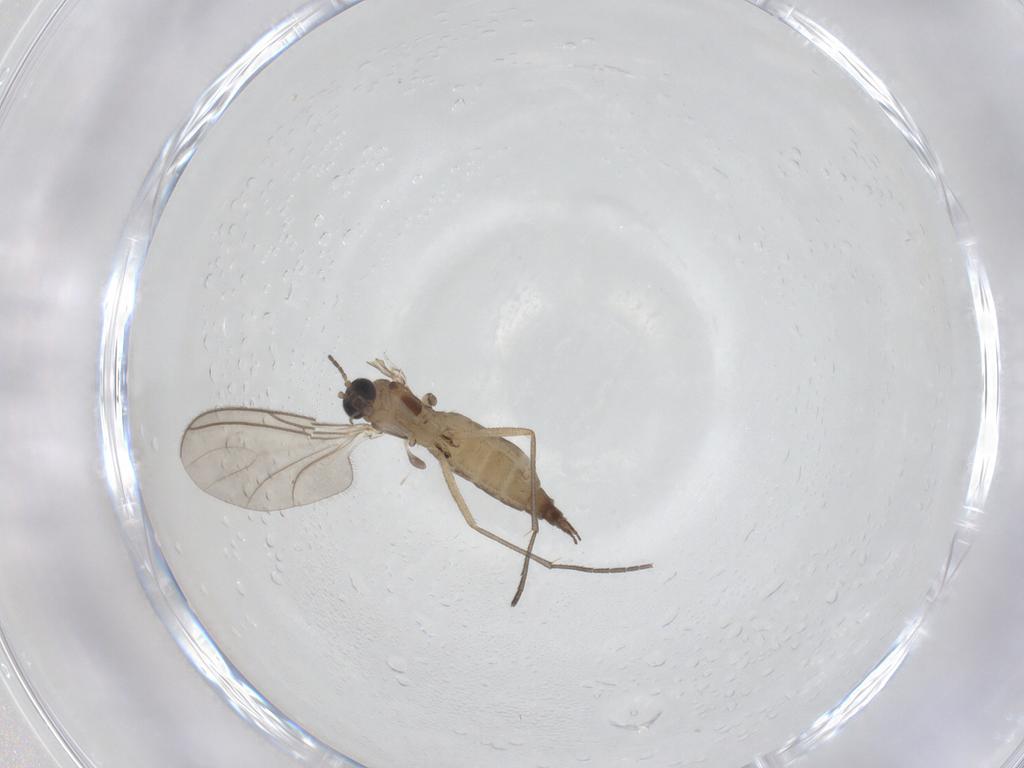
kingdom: Animalia
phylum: Arthropoda
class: Insecta
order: Diptera
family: Sciaridae
